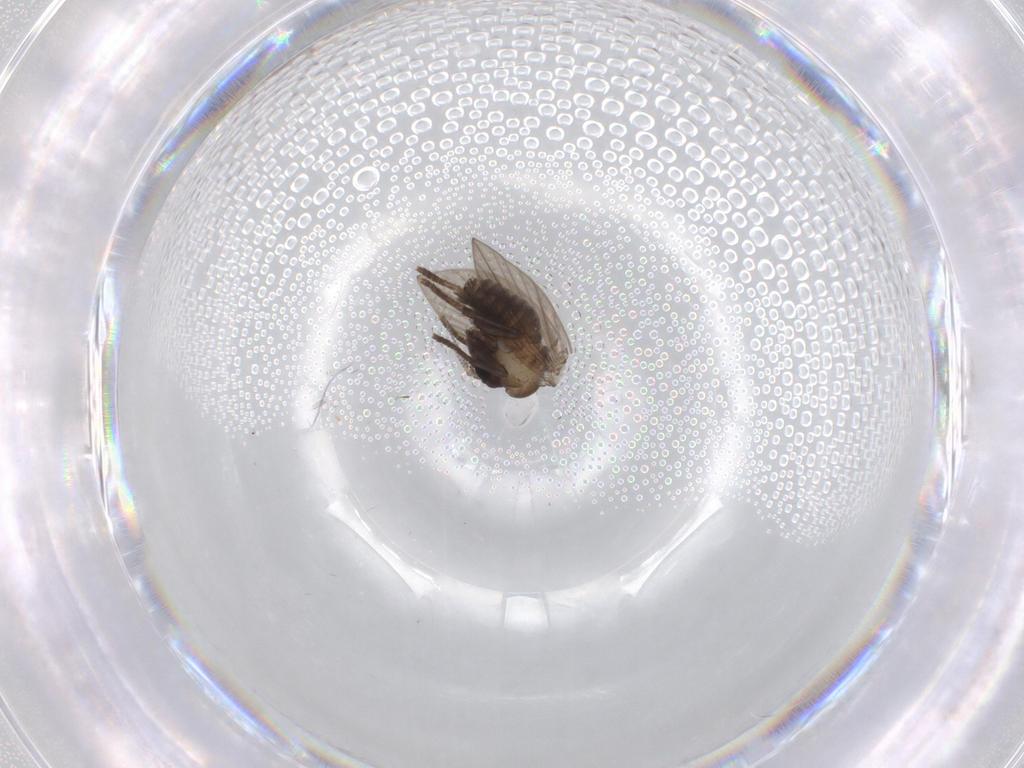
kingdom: Animalia
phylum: Arthropoda
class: Insecta
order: Diptera
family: Psychodidae
